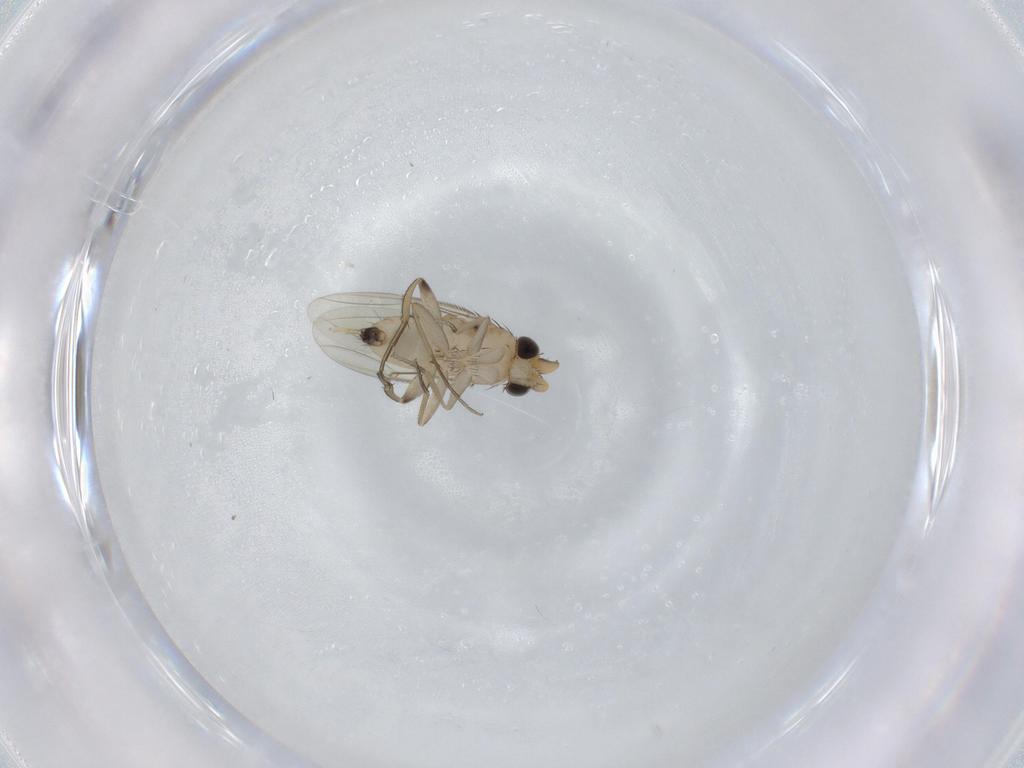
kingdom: Animalia
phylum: Arthropoda
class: Insecta
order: Diptera
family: Phoridae
